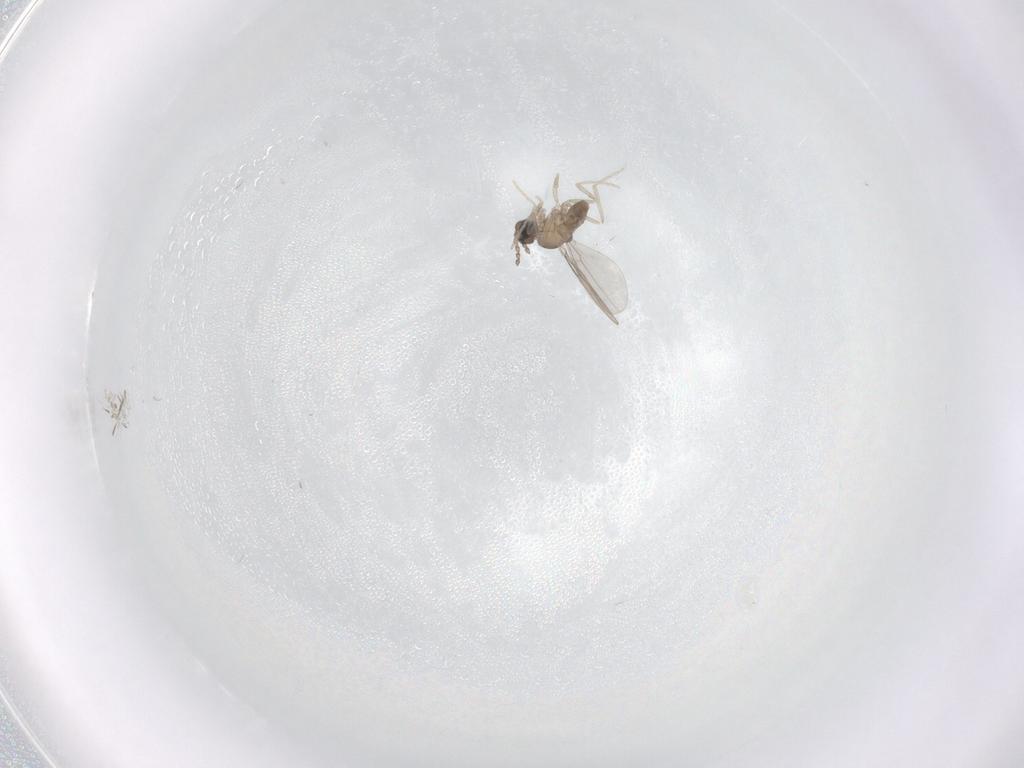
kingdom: Animalia
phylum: Arthropoda
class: Insecta
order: Diptera
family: Cecidomyiidae
